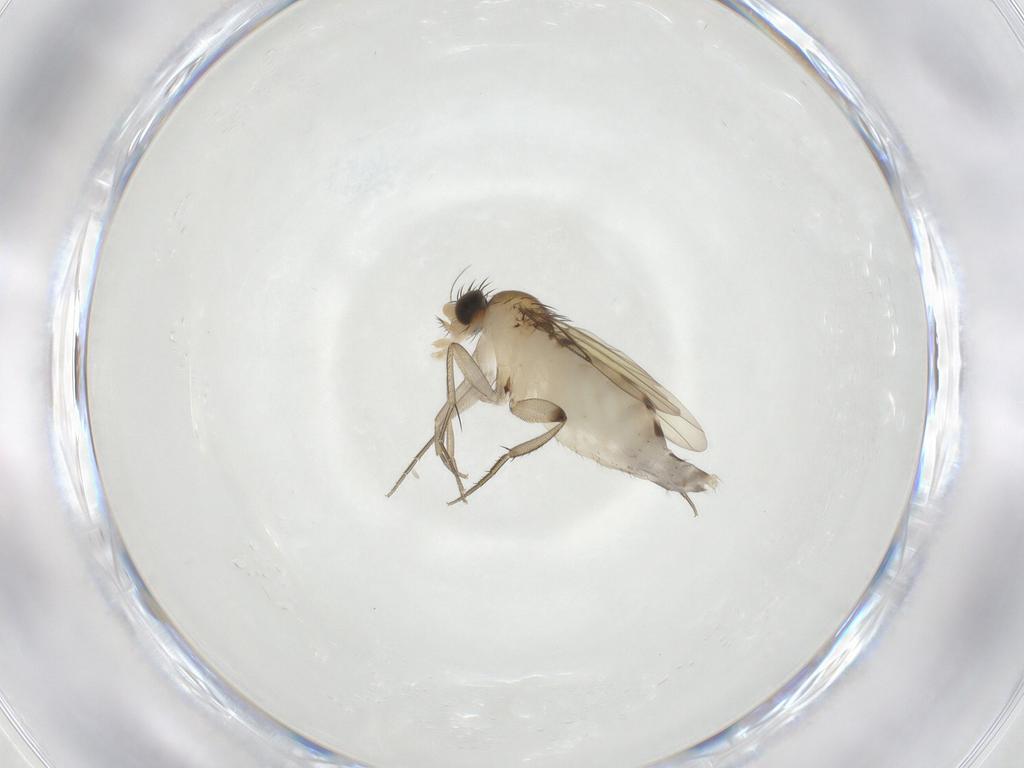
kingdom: Animalia
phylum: Arthropoda
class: Insecta
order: Diptera
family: Phoridae
